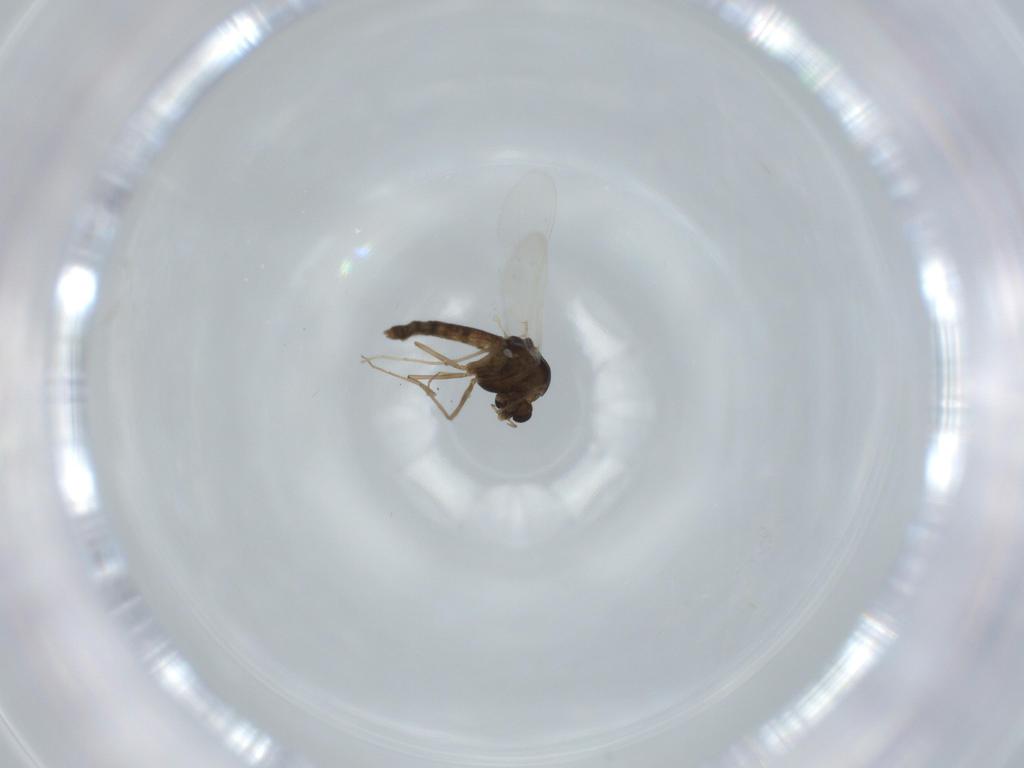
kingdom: Animalia
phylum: Arthropoda
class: Insecta
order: Diptera
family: Chironomidae
